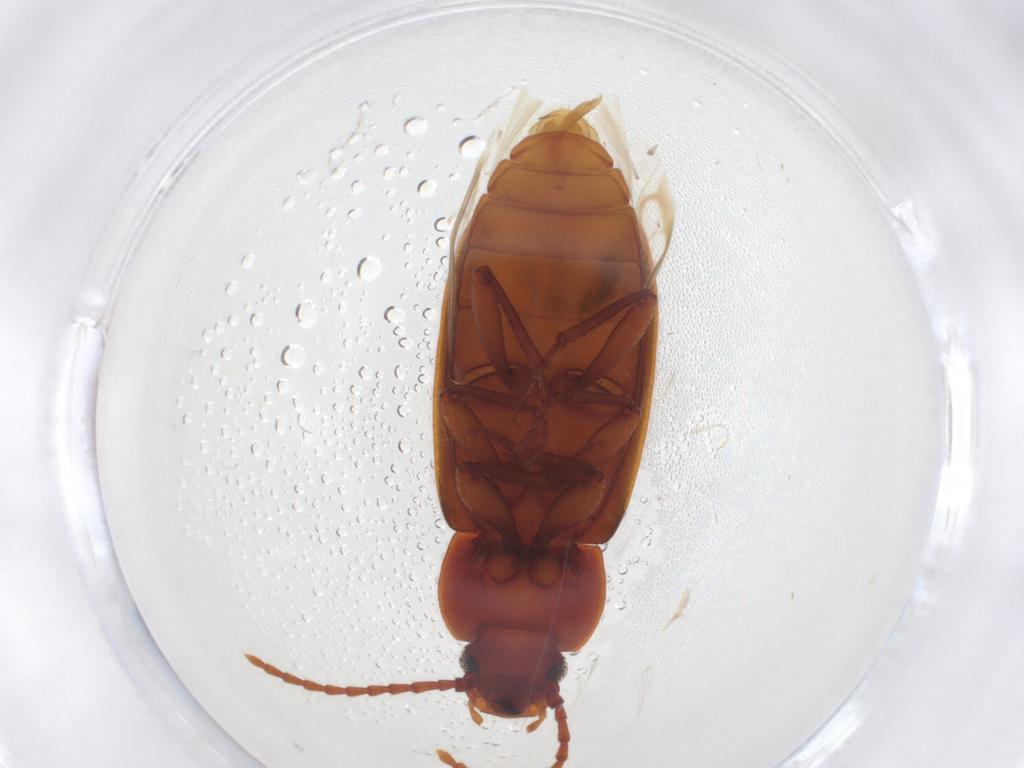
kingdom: Animalia
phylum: Arthropoda
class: Insecta
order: Coleoptera
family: Tenebrionidae
